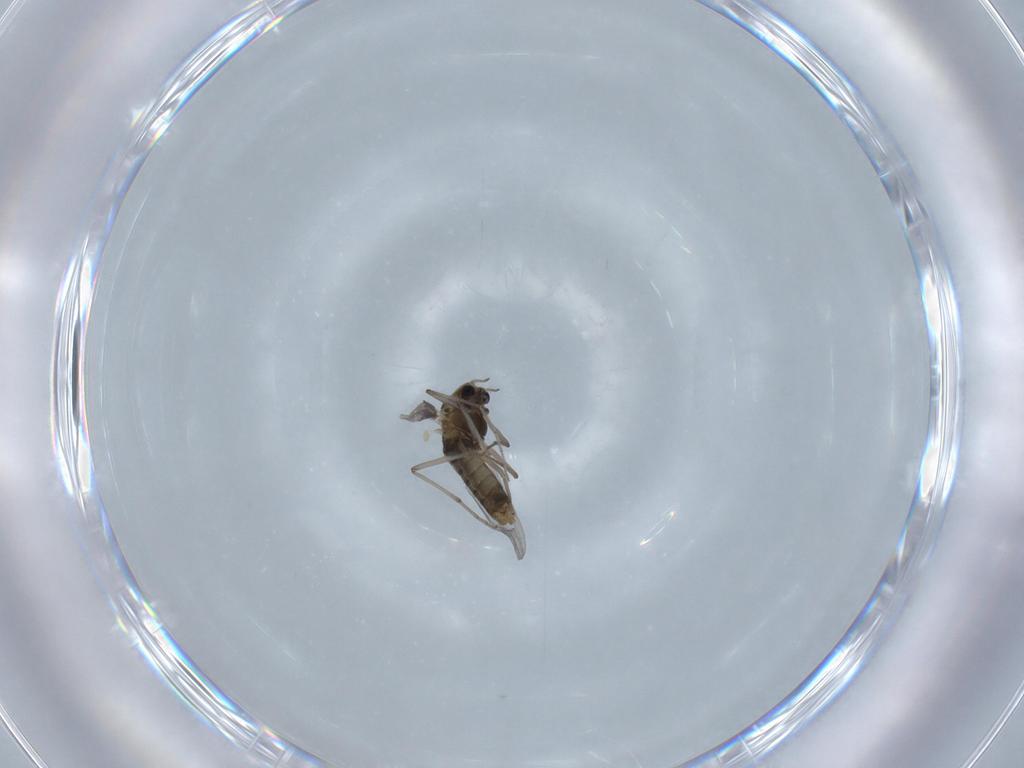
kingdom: Animalia
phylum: Arthropoda
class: Insecta
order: Diptera
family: Chironomidae
